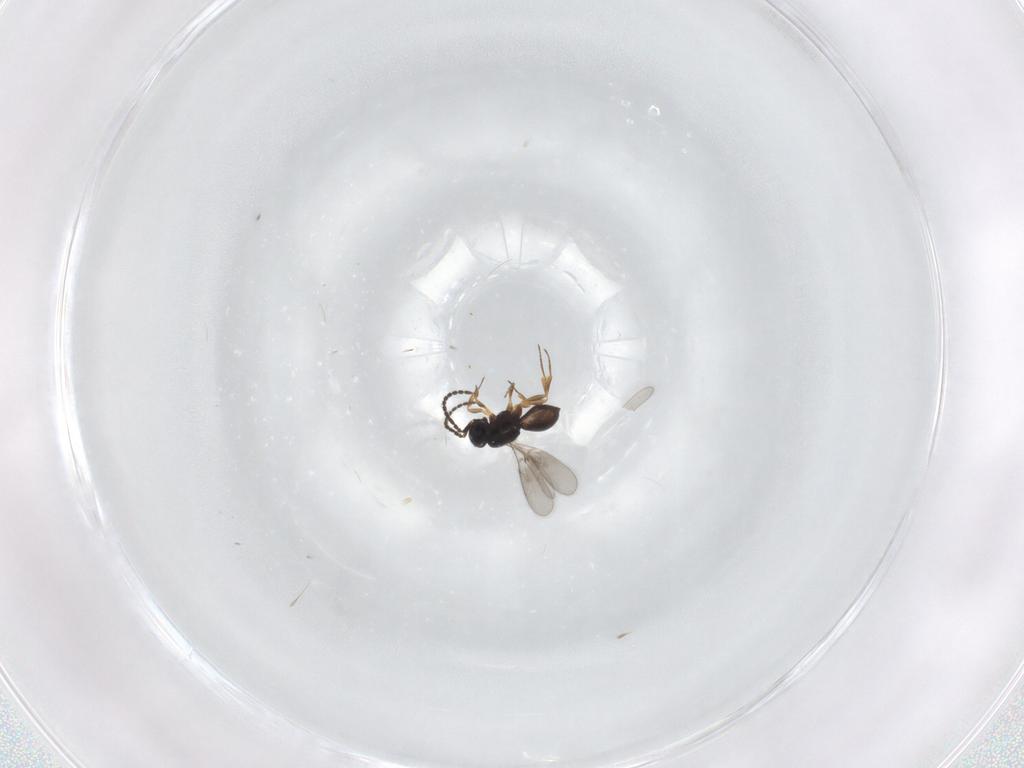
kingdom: Animalia
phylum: Arthropoda
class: Insecta
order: Hymenoptera
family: Scelionidae
